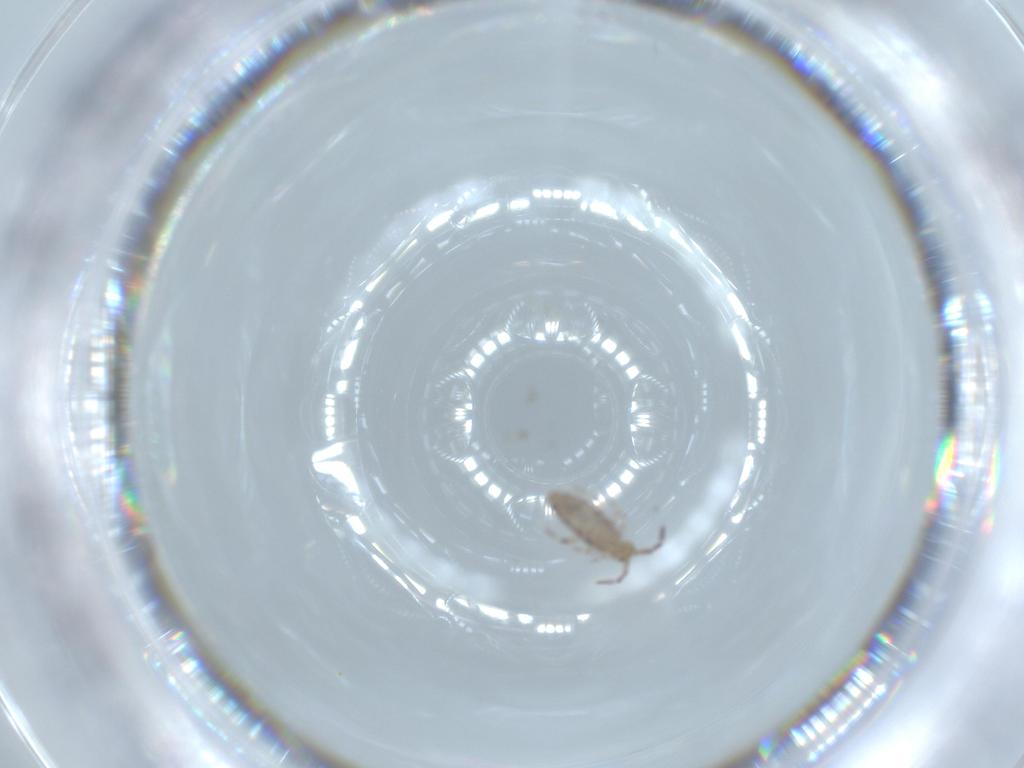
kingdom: Animalia
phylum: Arthropoda
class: Collembola
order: Entomobryomorpha
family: Entomobryidae
